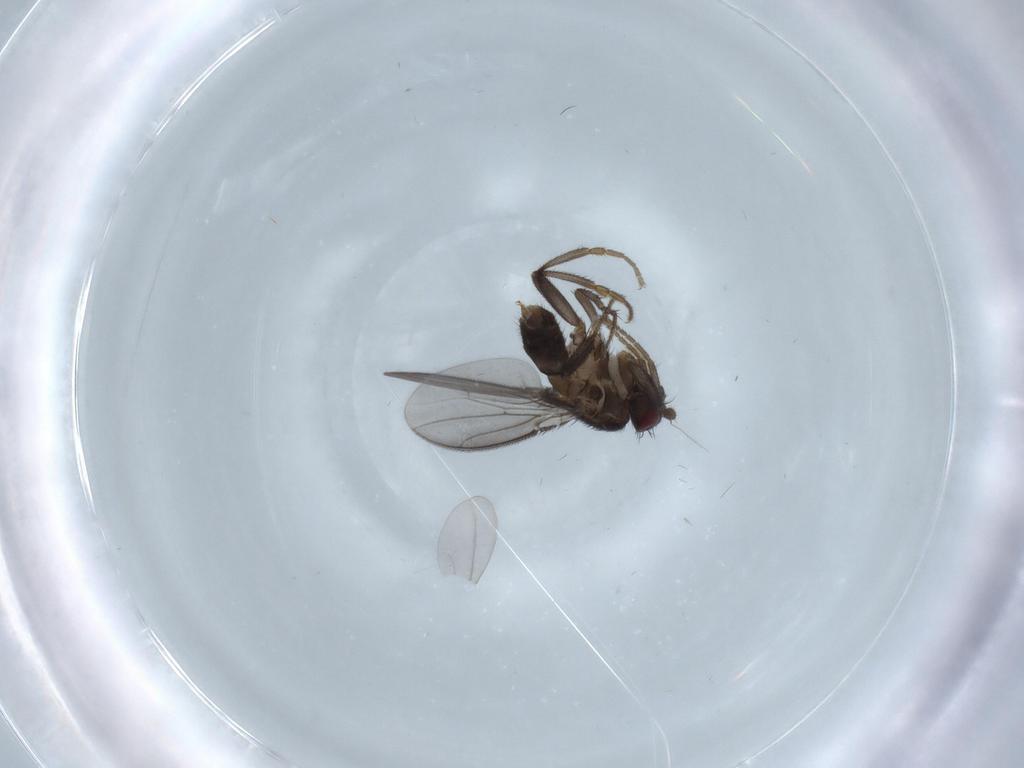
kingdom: Animalia
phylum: Arthropoda
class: Insecta
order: Diptera
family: Sphaeroceridae
